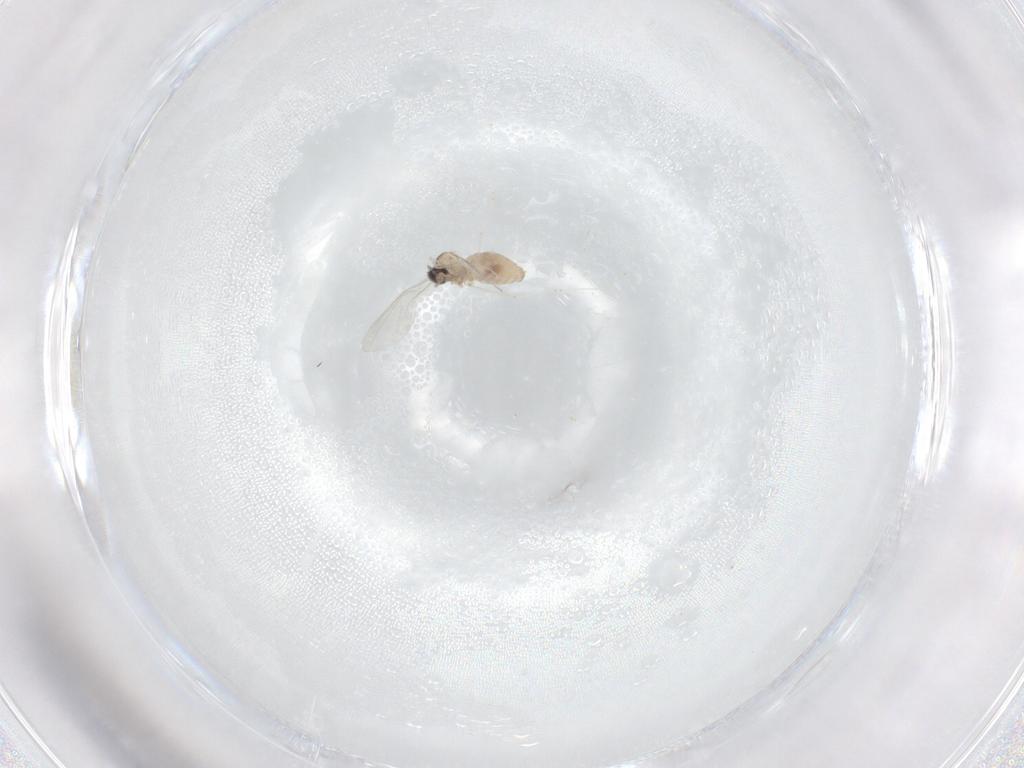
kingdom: Animalia
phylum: Arthropoda
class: Insecta
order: Diptera
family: Cecidomyiidae
